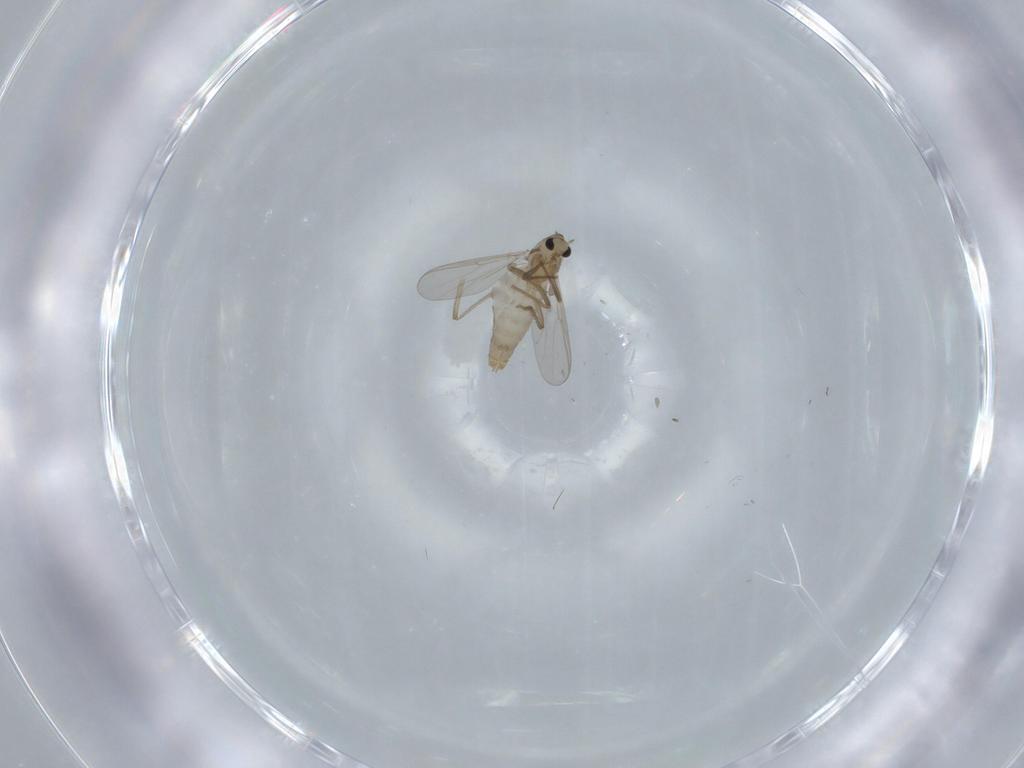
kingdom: Animalia
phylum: Arthropoda
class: Insecta
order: Diptera
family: Chironomidae
